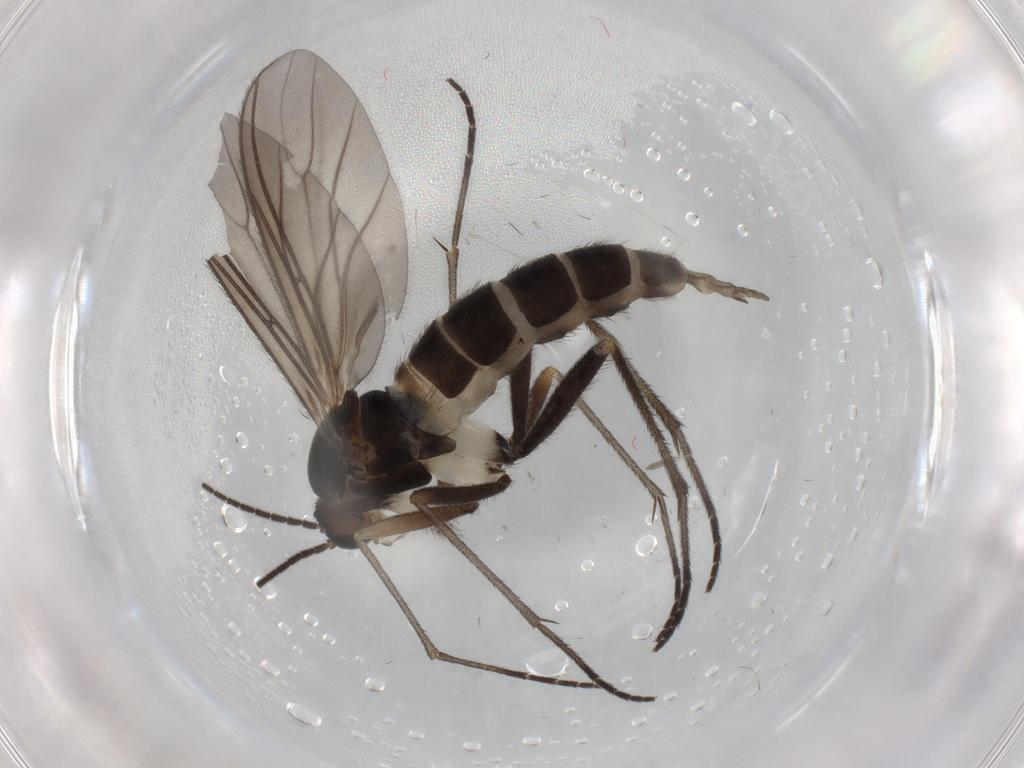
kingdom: Animalia
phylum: Arthropoda
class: Insecta
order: Diptera
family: Sciaridae
